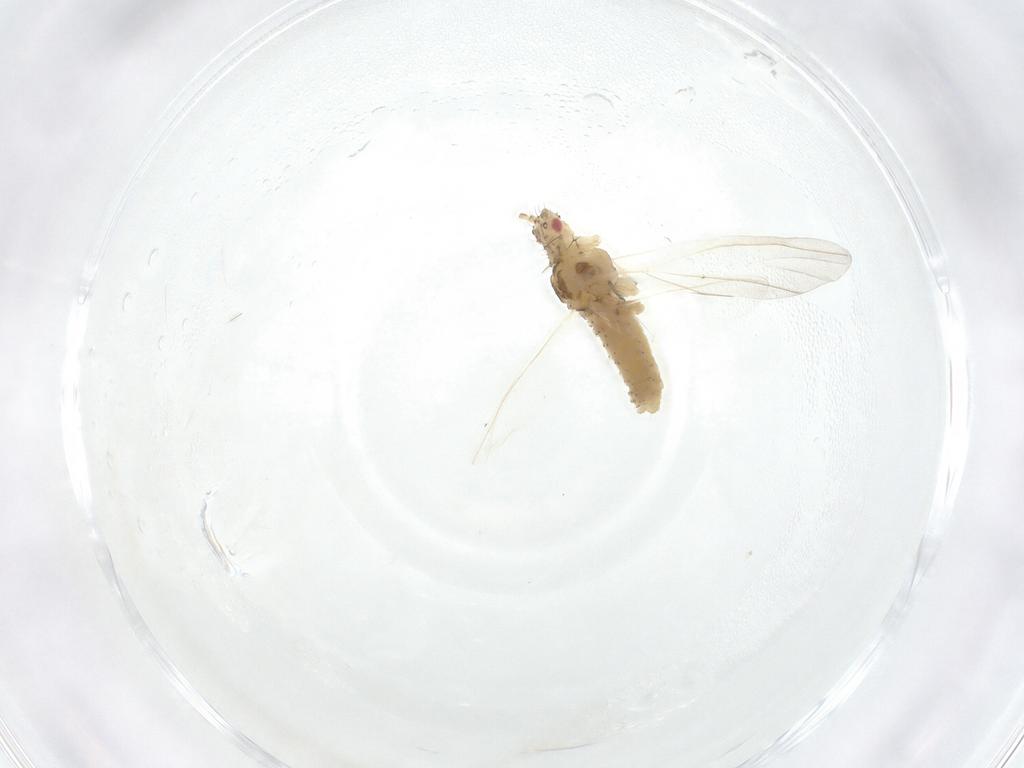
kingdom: Animalia
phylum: Arthropoda
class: Insecta
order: Hemiptera
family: Aphididae
